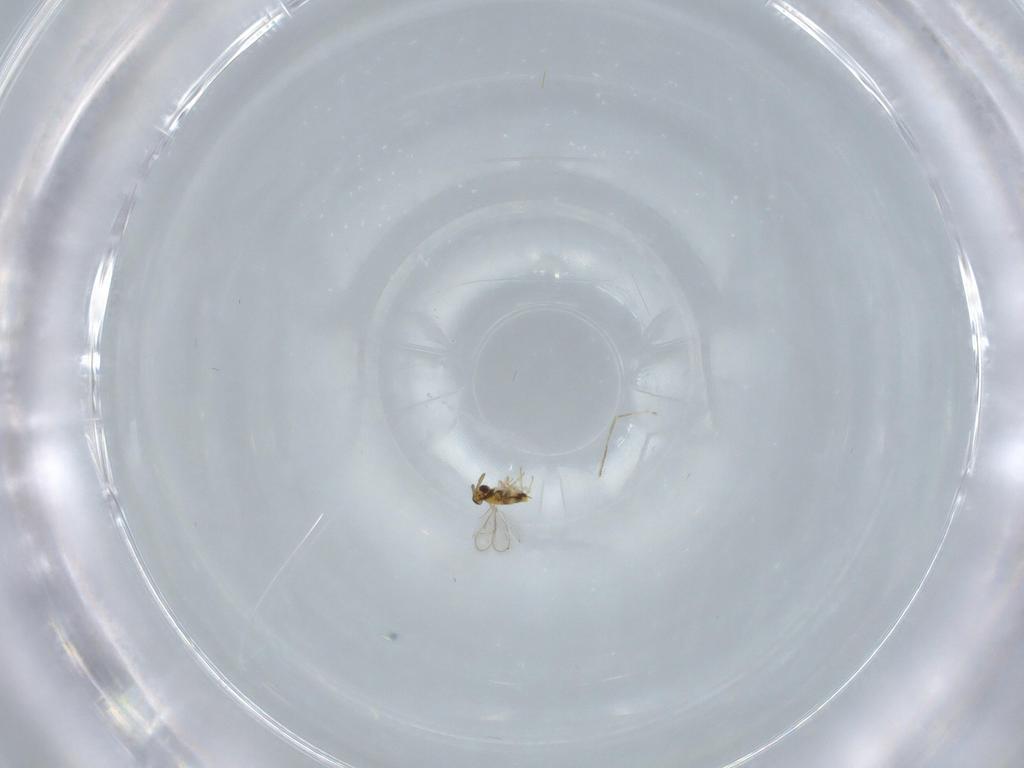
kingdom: Animalia
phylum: Arthropoda
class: Insecta
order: Hymenoptera
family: Aphelinidae
